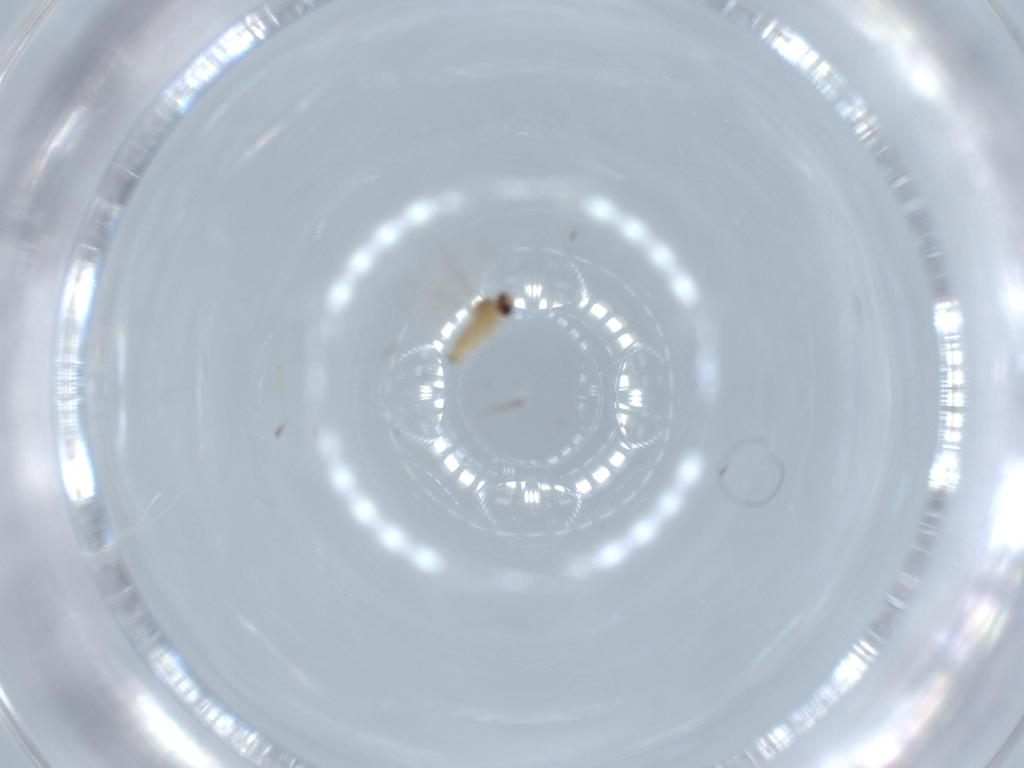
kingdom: Animalia
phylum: Arthropoda
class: Insecta
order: Diptera
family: Cecidomyiidae
